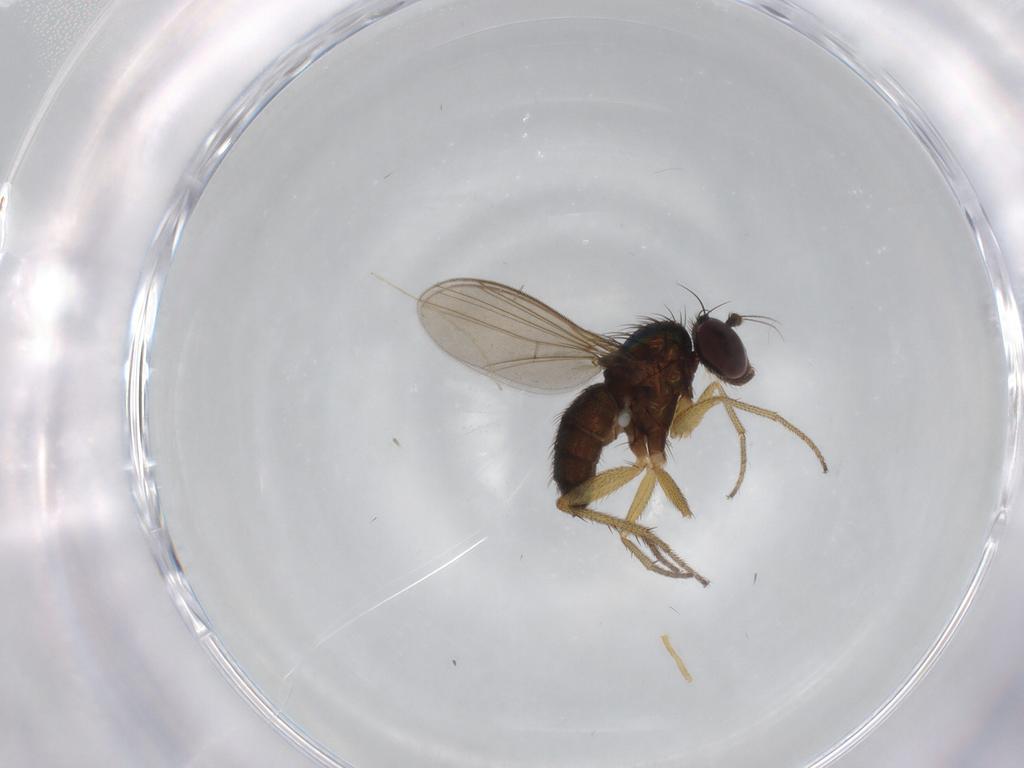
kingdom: Animalia
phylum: Arthropoda
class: Insecta
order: Diptera
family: Dolichopodidae
